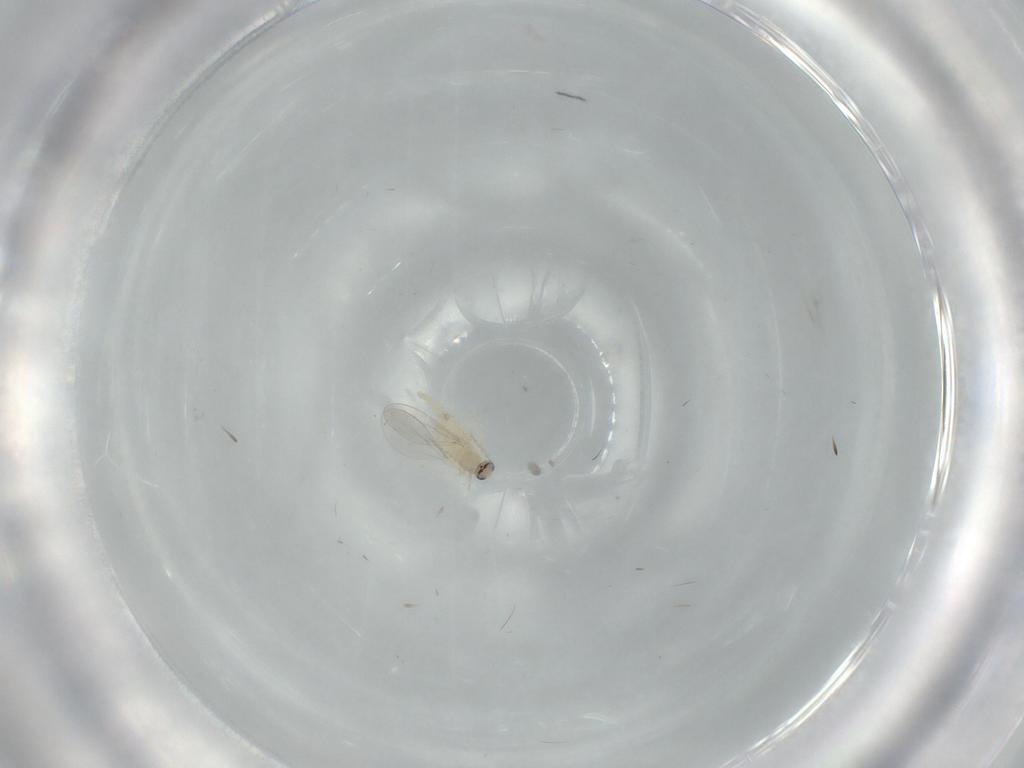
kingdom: Animalia
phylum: Arthropoda
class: Insecta
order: Diptera
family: Cecidomyiidae
